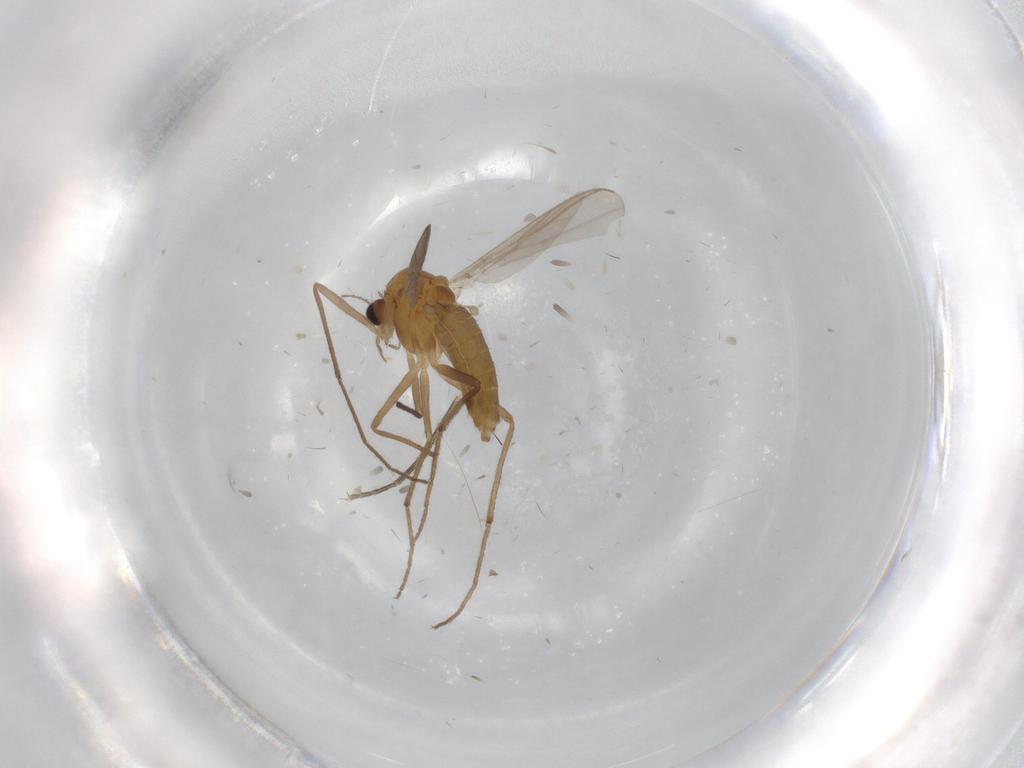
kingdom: Animalia
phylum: Arthropoda
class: Insecta
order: Diptera
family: Chironomidae
